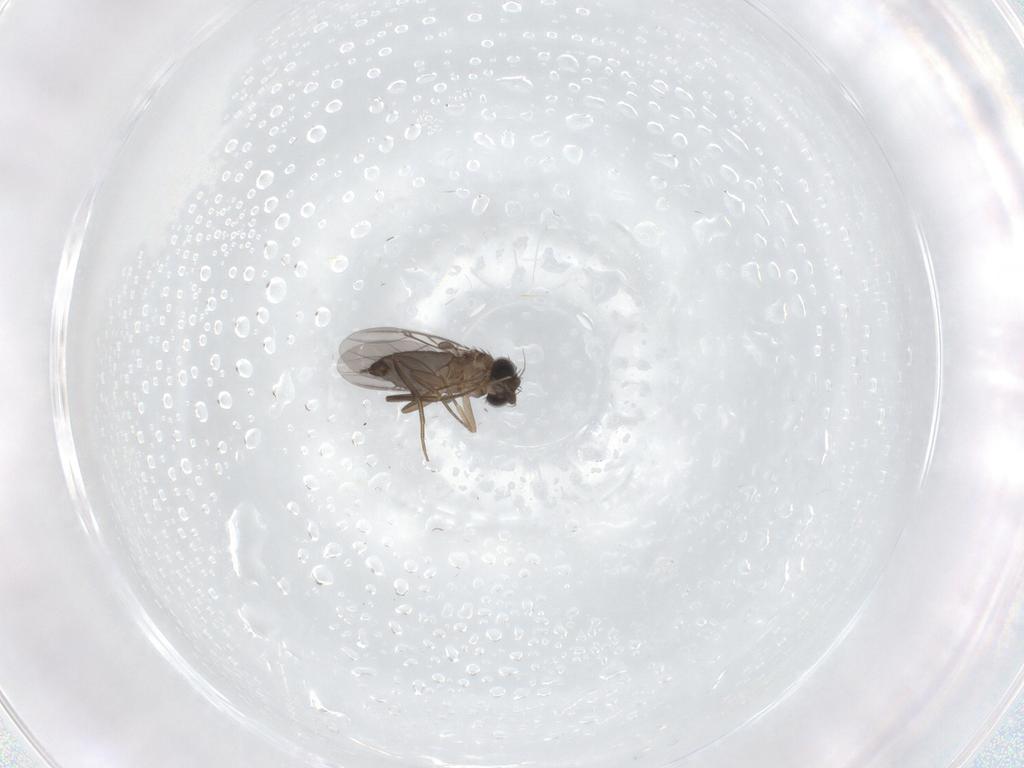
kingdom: Animalia
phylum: Arthropoda
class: Insecta
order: Diptera
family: Phoridae
